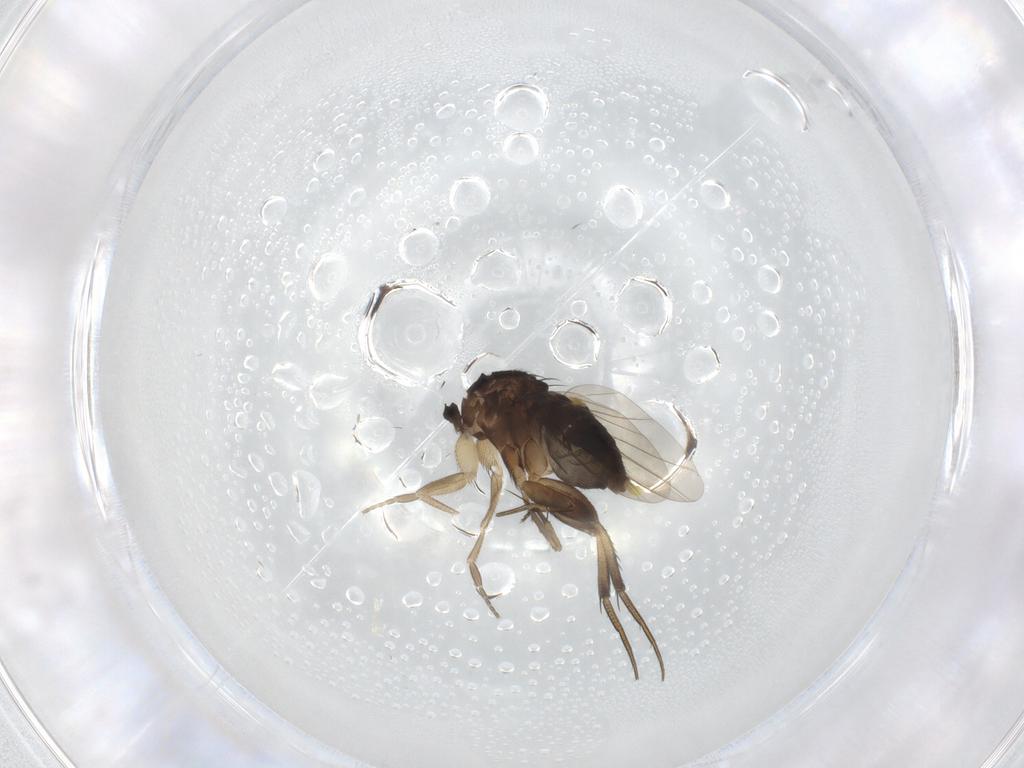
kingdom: Animalia
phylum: Arthropoda
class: Insecta
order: Diptera
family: Phoridae
